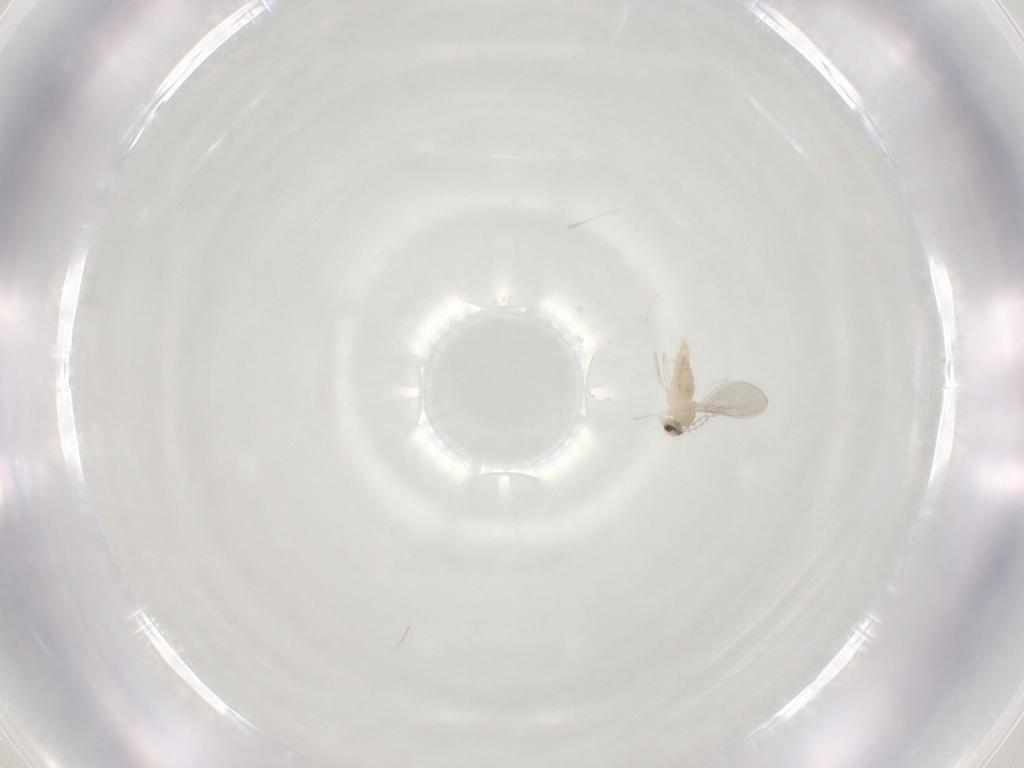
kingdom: Animalia
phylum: Arthropoda
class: Insecta
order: Diptera
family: Cecidomyiidae
